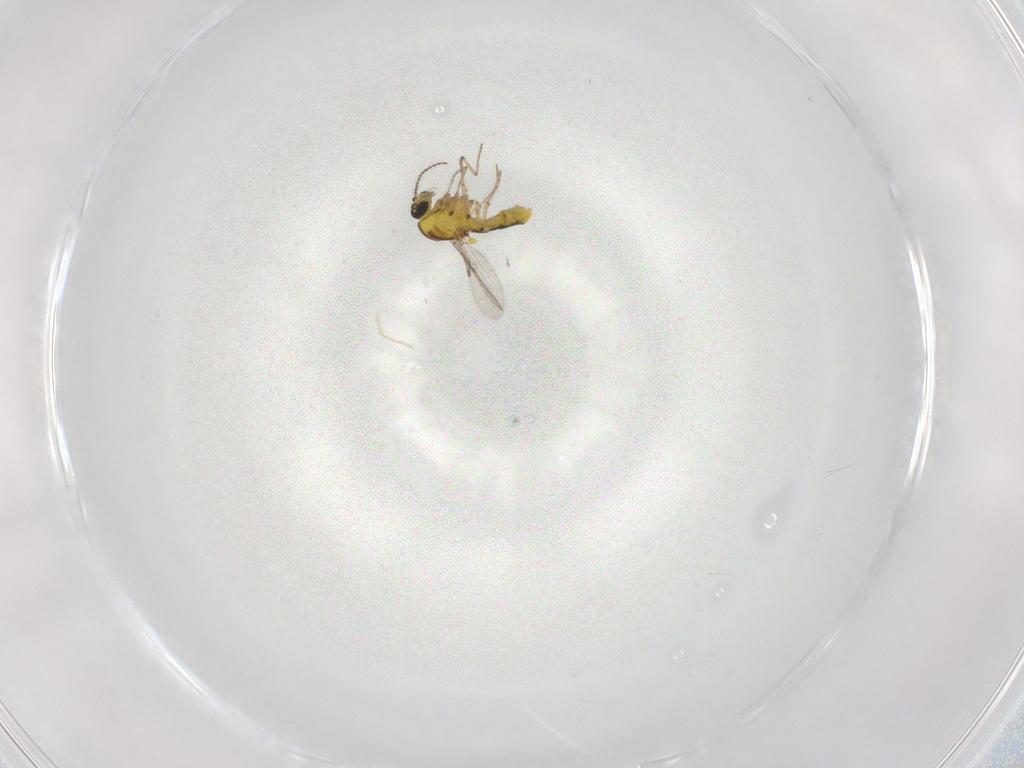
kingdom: Animalia
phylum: Arthropoda
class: Insecta
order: Diptera
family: Ceratopogonidae
